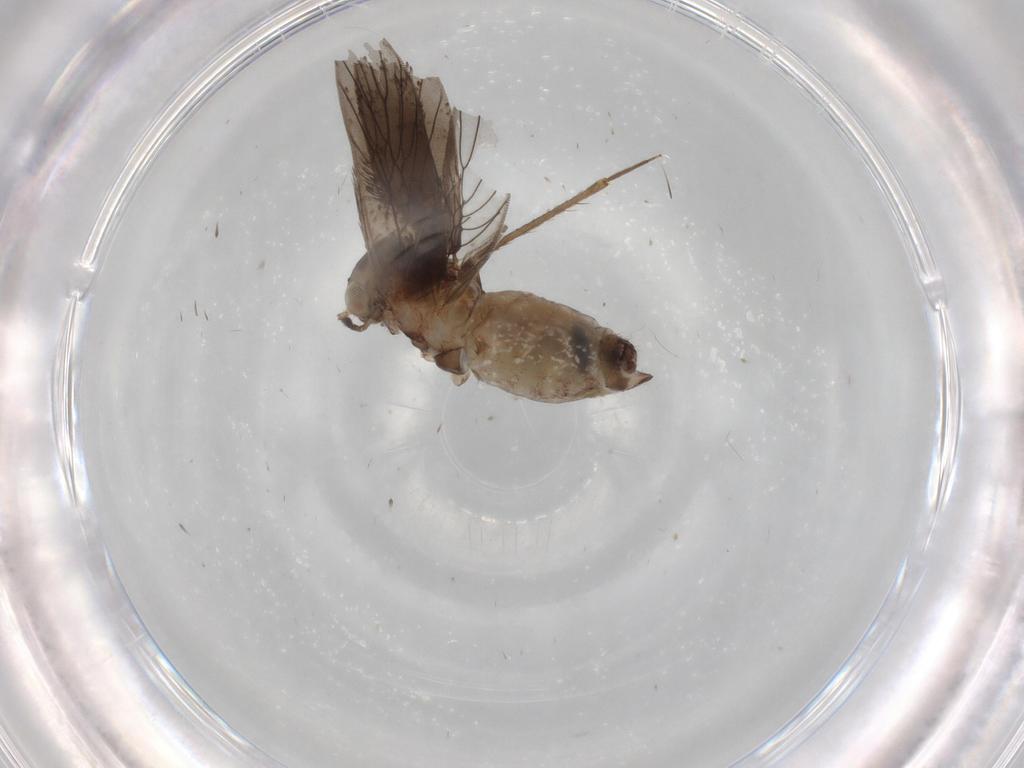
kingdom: Animalia
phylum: Arthropoda
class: Insecta
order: Psocodea
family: Lepidopsocidae
